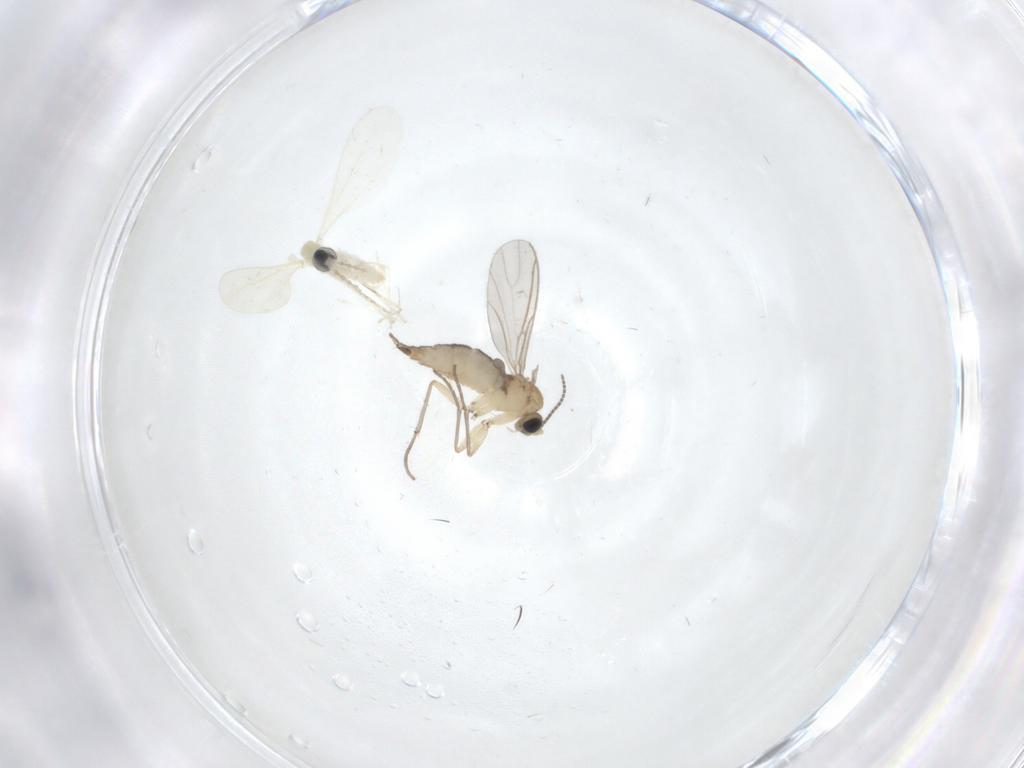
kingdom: Animalia
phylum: Arthropoda
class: Insecta
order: Diptera
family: Cecidomyiidae
